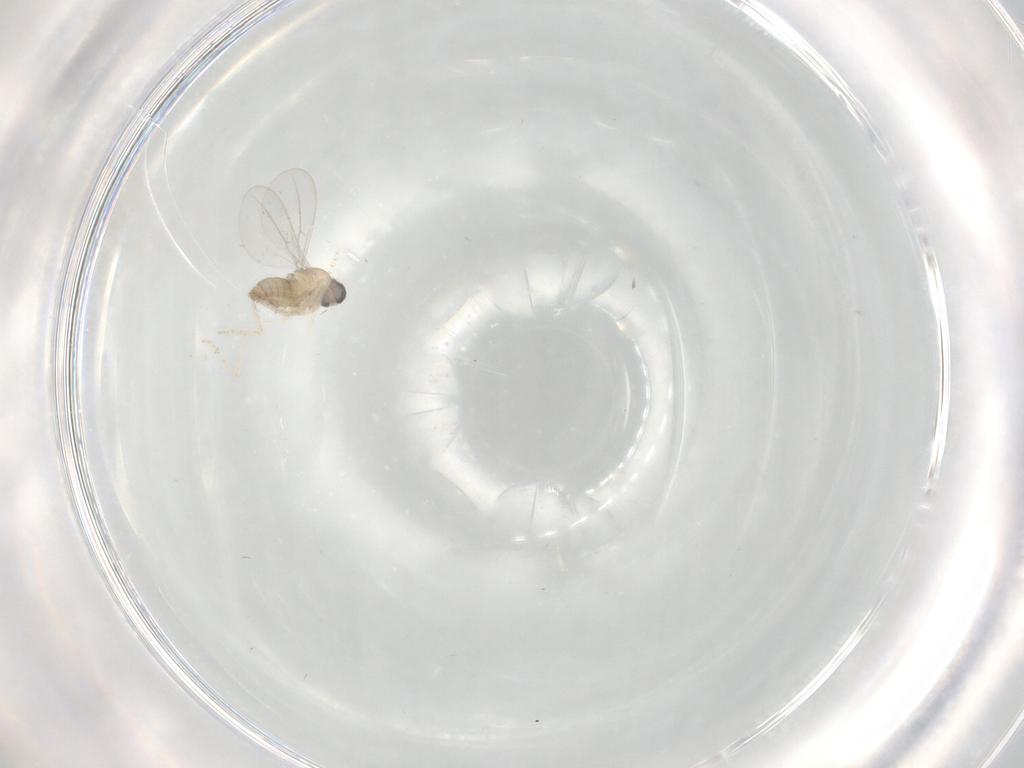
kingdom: Animalia
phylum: Arthropoda
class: Insecta
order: Diptera
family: Cecidomyiidae
